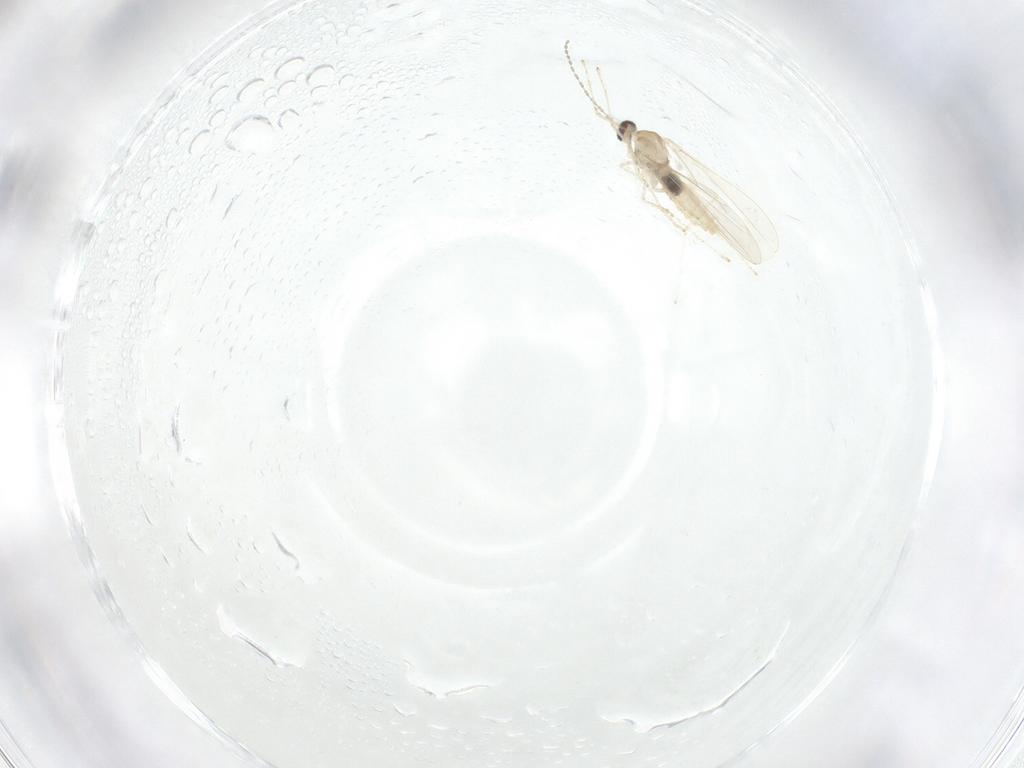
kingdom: Animalia
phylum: Arthropoda
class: Insecta
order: Diptera
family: Cecidomyiidae
